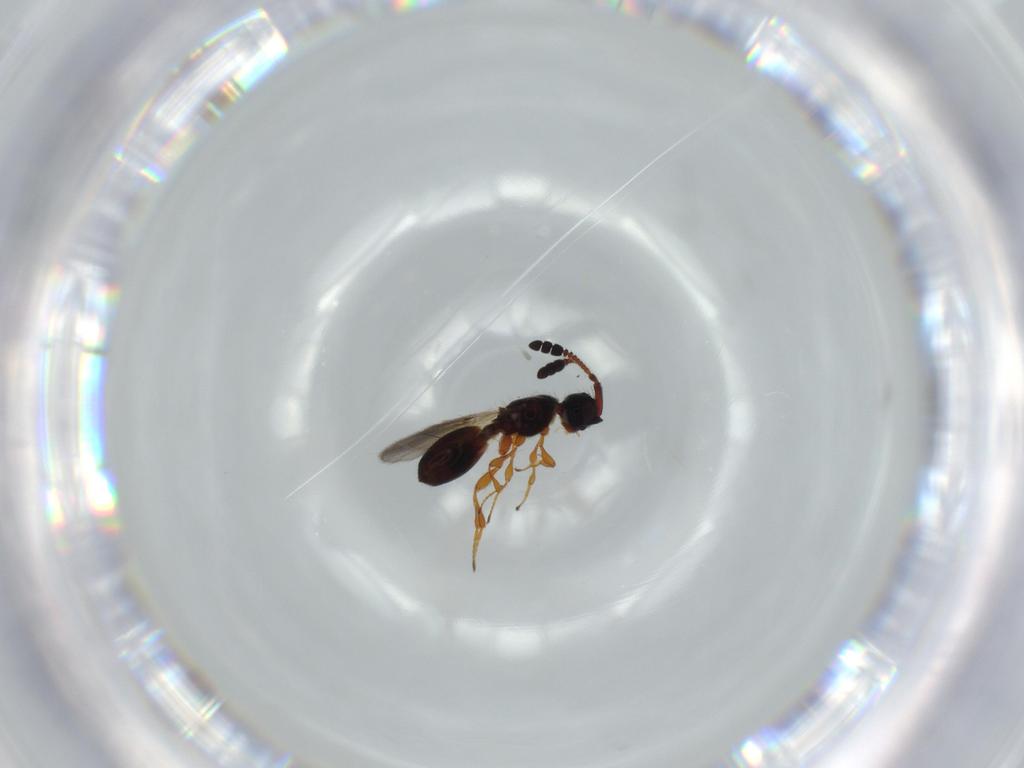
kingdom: Animalia
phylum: Arthropoda
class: Insecta
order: Hymenoptera
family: Diapriidae
